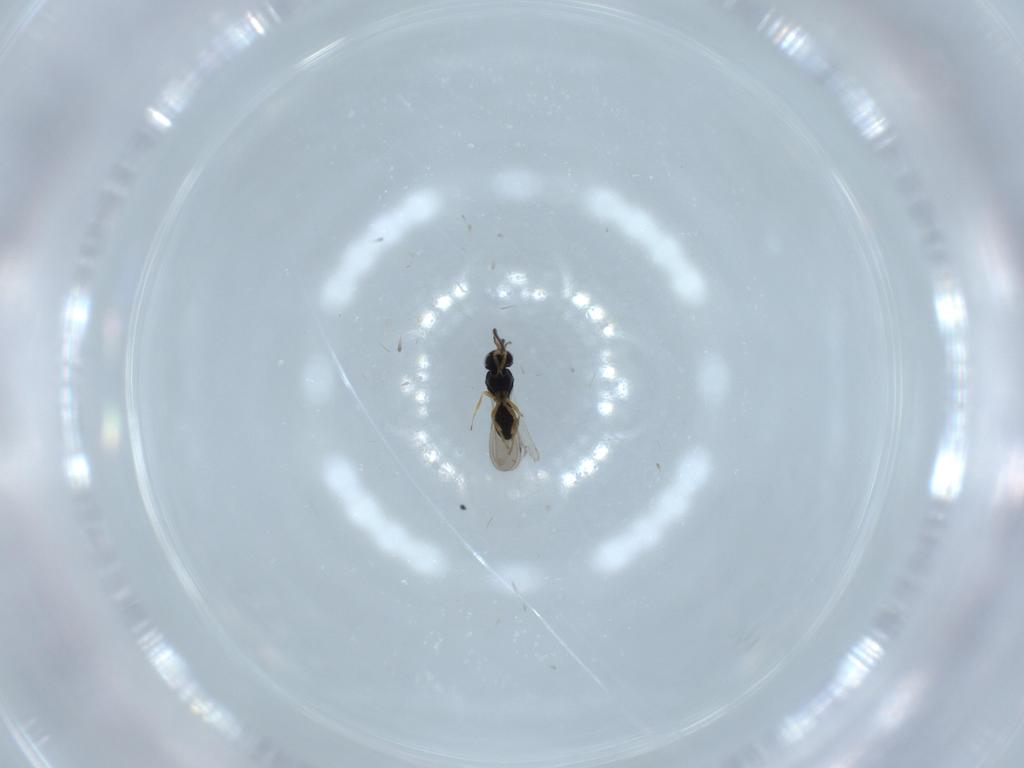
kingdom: Animalia
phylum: Arthropoda
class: Insecta
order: Hymenoptera
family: Scelionidae
